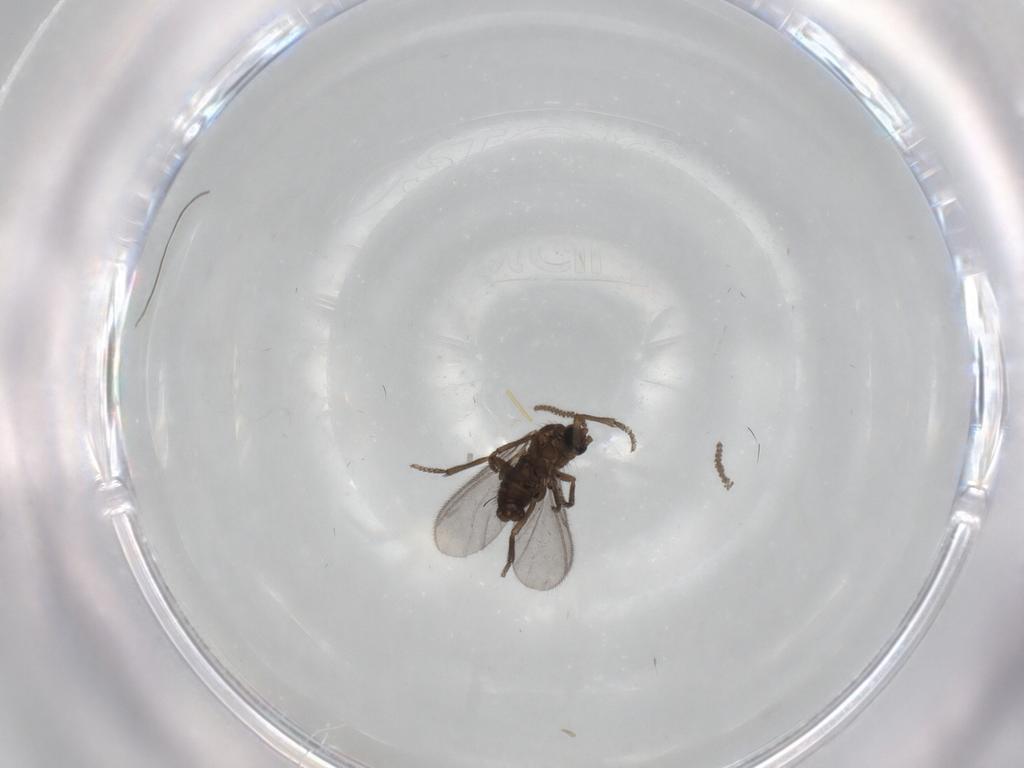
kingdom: Animalia
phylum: Arthropoda
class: Insecta
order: Diptera
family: Sciaridae
